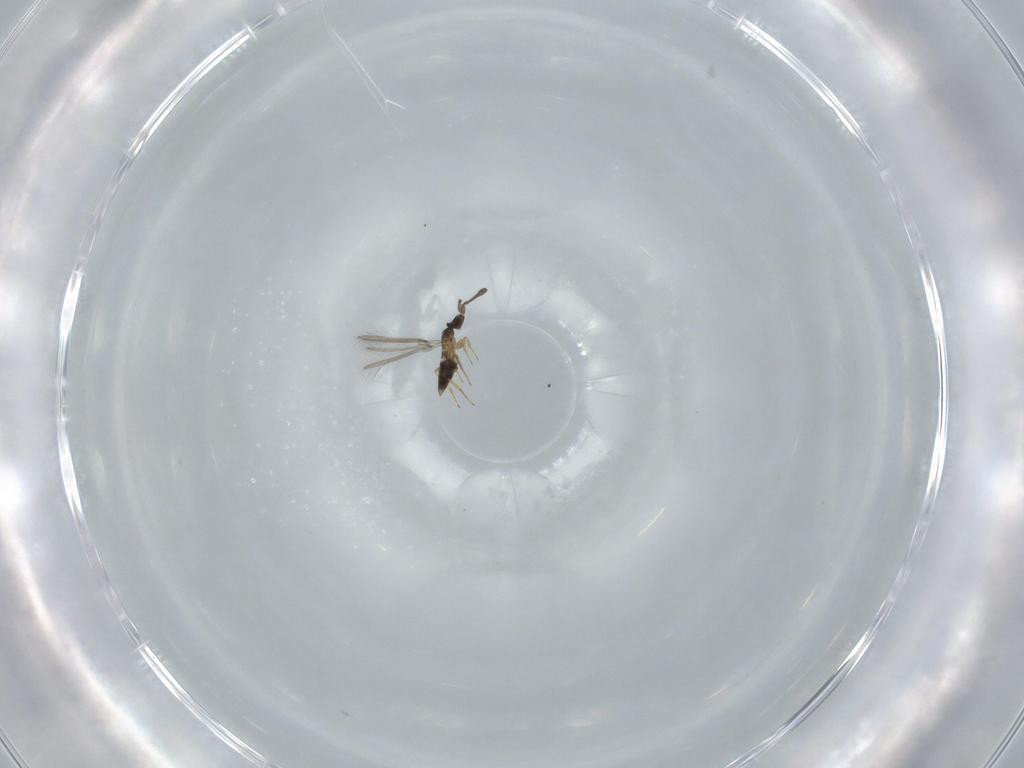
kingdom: Animalia
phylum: Arthropoda
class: Insecta
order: Hymenoptera
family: Mymaridae
